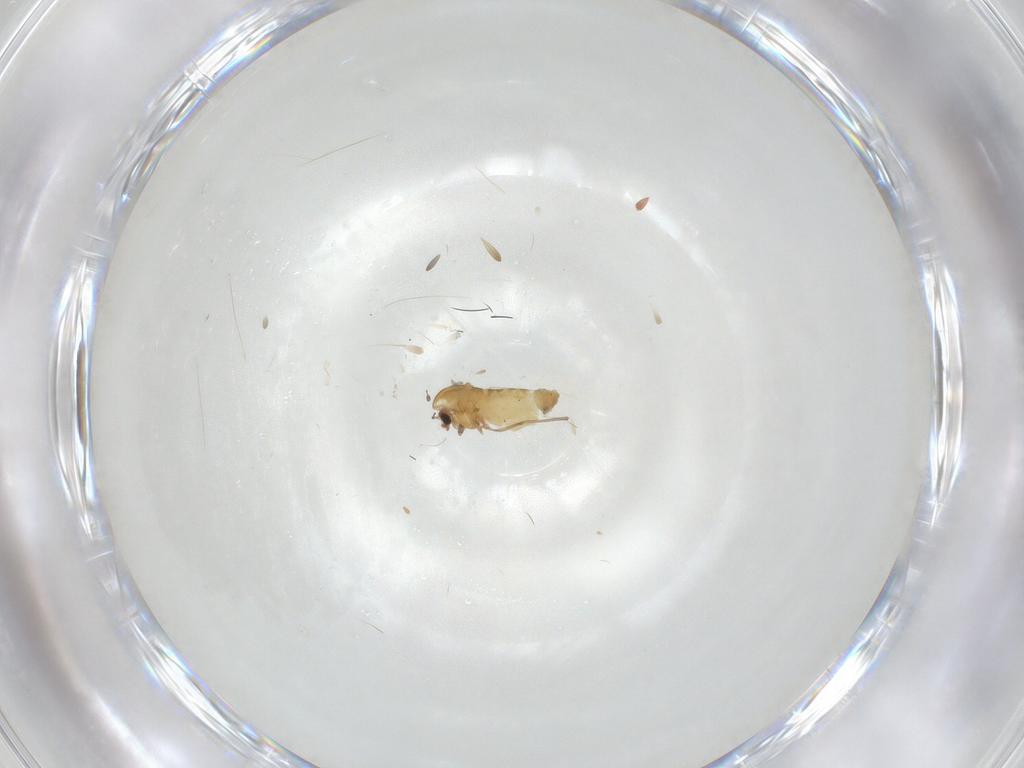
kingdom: Animalia
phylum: Arthropoda
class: Insecta
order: Diptera
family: Chironomidae
